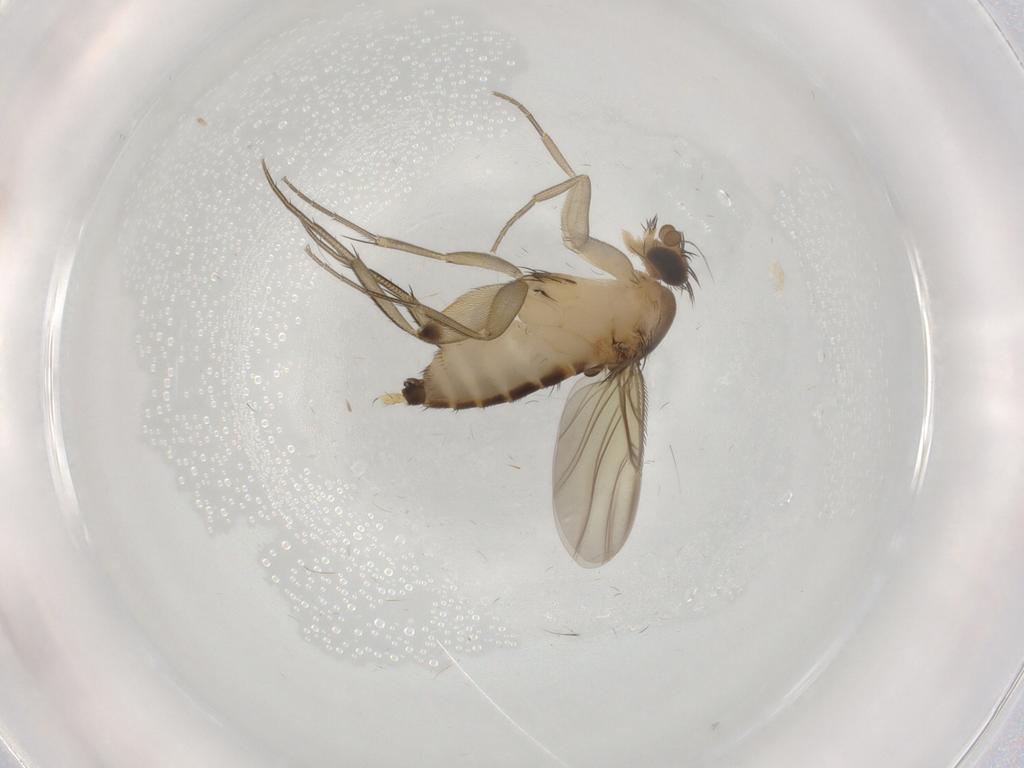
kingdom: Animalia
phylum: Arthropoda
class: Insecta
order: Diptera
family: Phoridae
